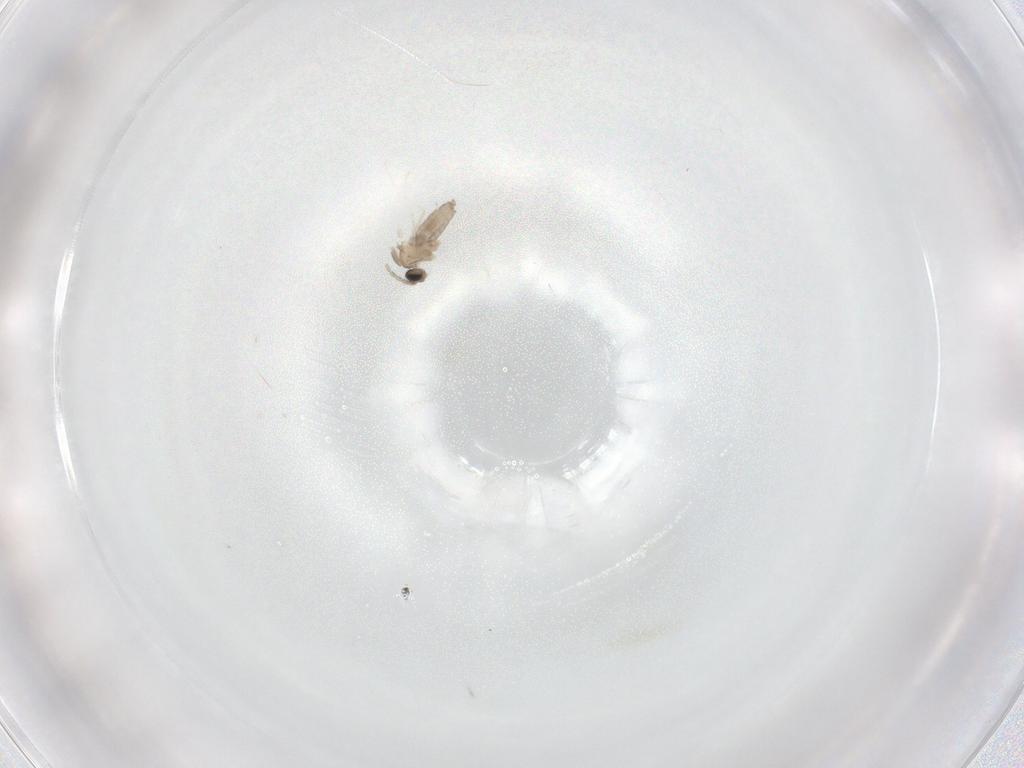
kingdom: Animalia
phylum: Arthropoda
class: Insecta
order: Diptera
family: Cecidomyiidae
